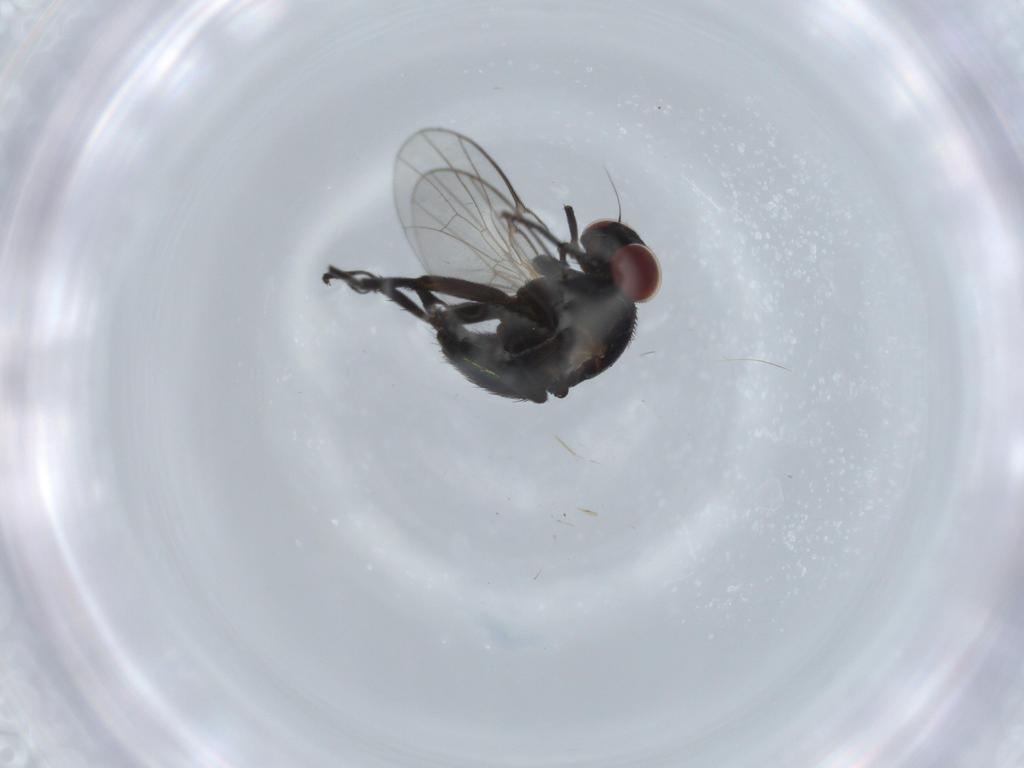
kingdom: Animalia
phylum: Arthropoda
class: Insecta
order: Diptera
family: Agromyzidae
